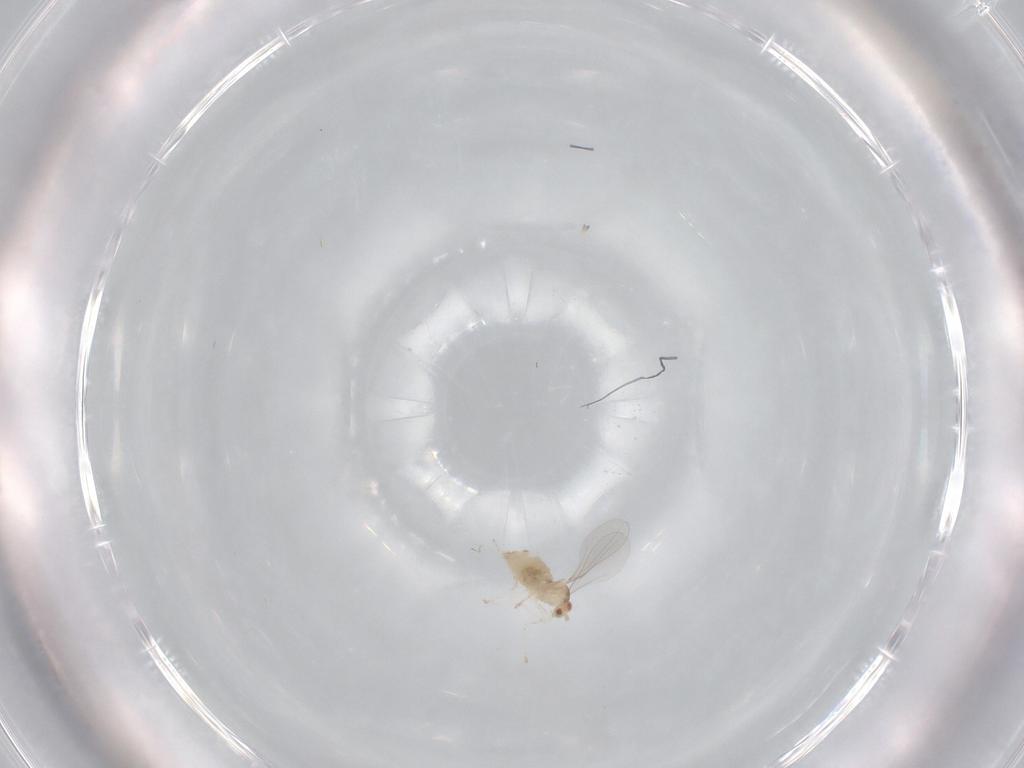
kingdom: Animalia
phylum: Arthropoda
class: Insecta
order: Diptera
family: Cecidomyiidae
